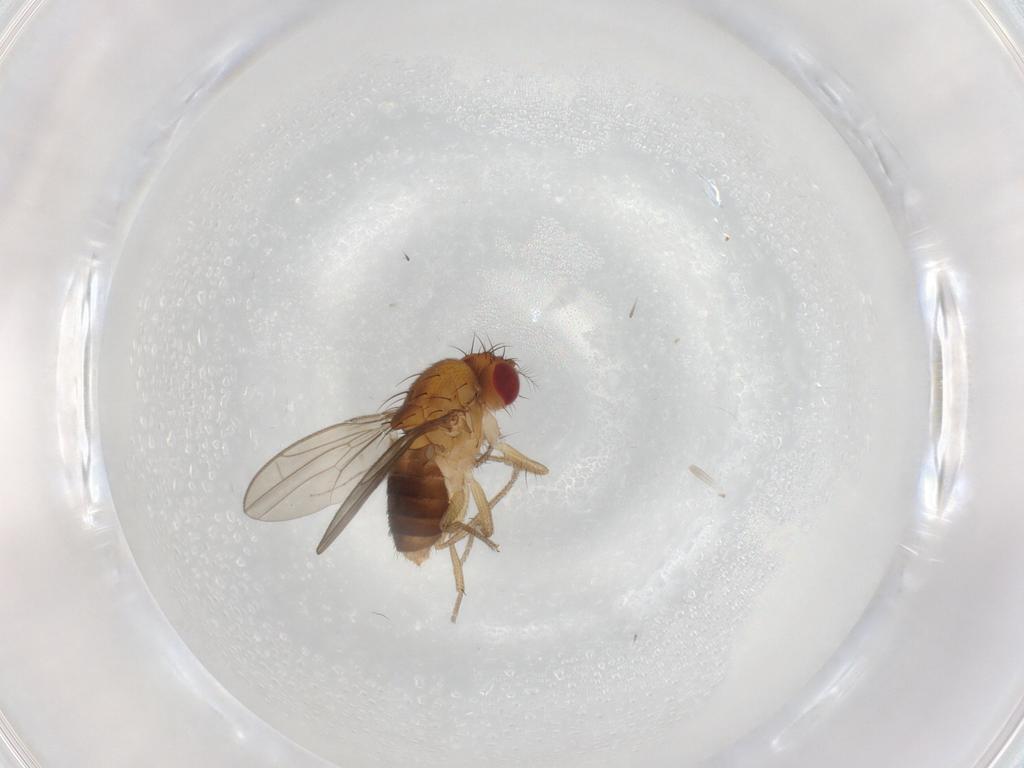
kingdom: Animalia
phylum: Arthropoda
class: Insecta
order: Diptera
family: Drosophilidae
